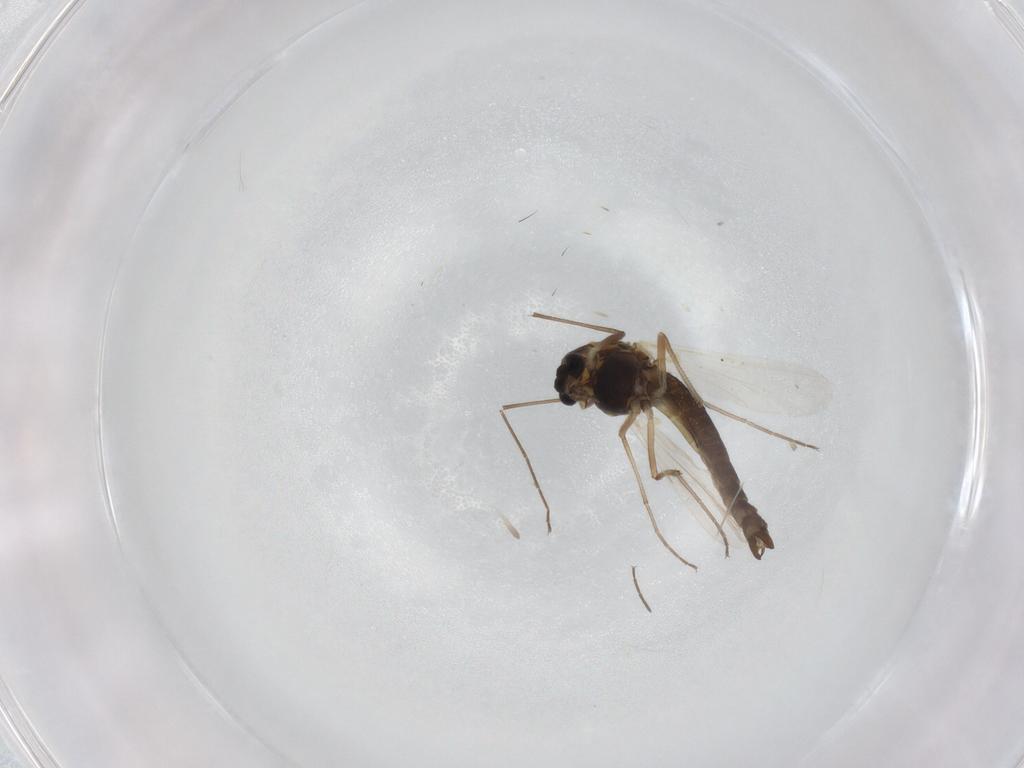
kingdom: Animalia
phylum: Arthropoda
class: Insecta
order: Diptera
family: Chironomidae
